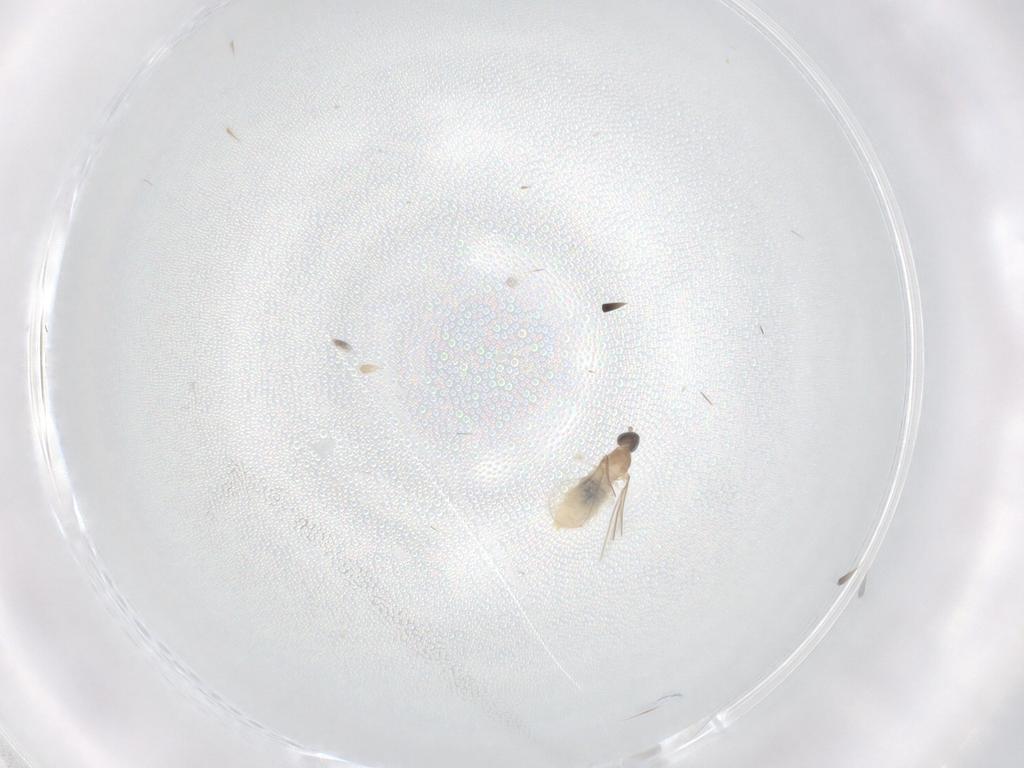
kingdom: Animalia
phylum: Arthropoda
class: Insecta
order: Diptera
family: Cecidomyiidae
